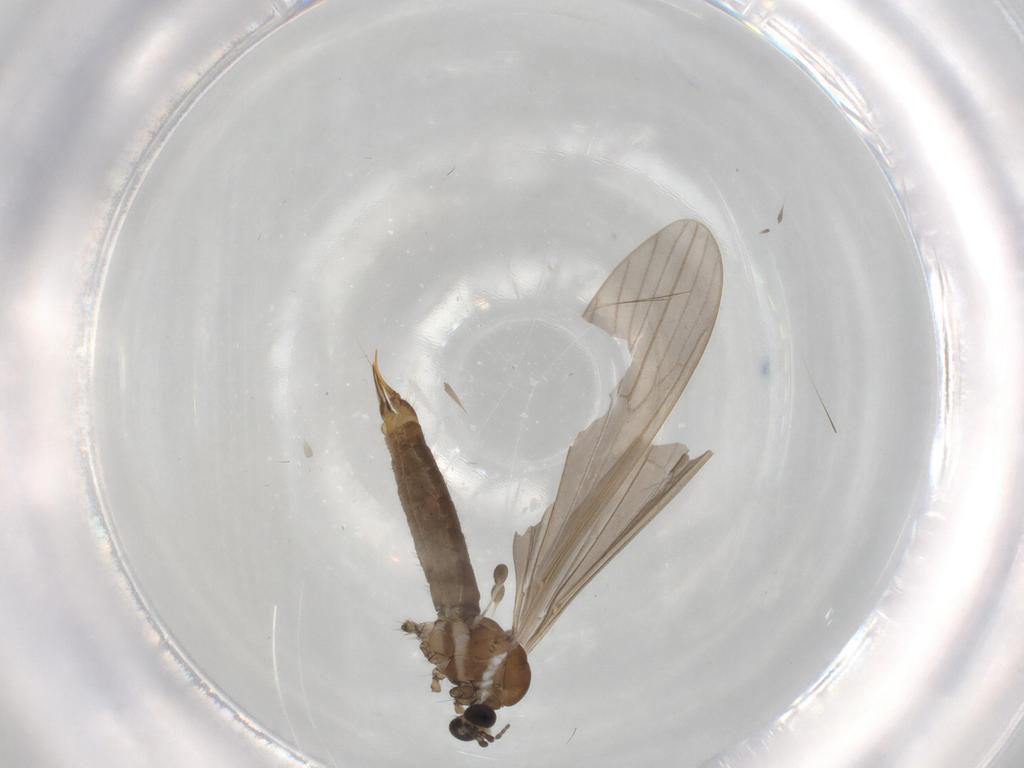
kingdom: Animalia
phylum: Arthropoda
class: Insecta
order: Diptera
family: Limoniidae
